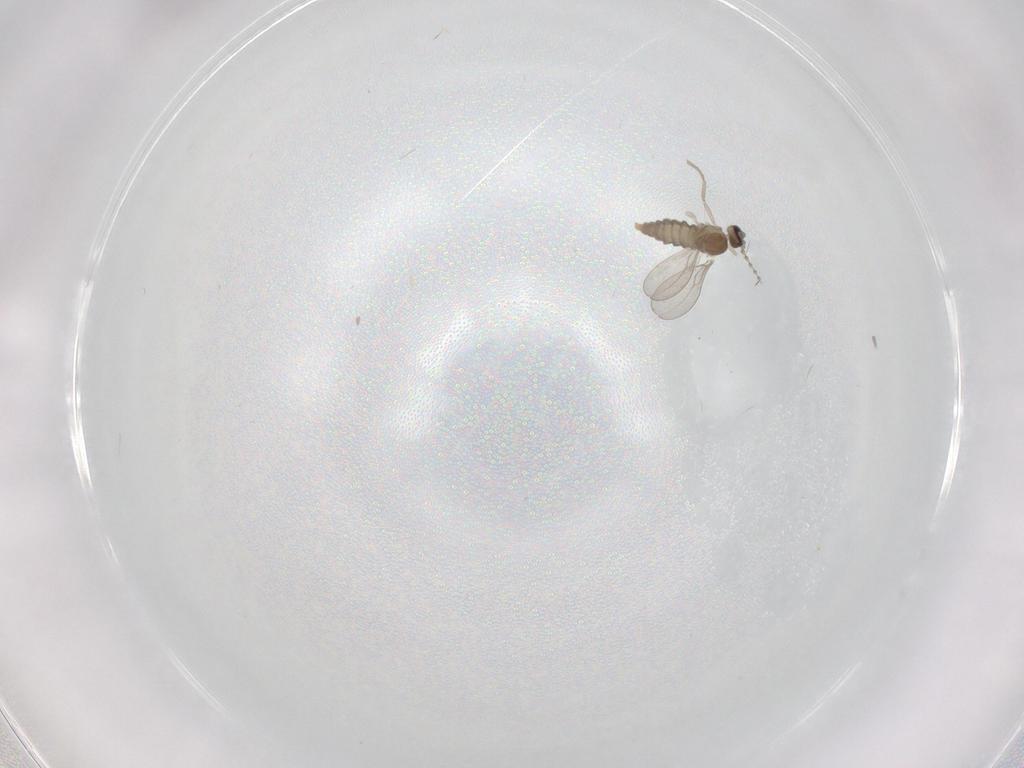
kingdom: Animalia
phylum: Arthropoda
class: Insecta
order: Diptera
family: Cecidomyiidae
